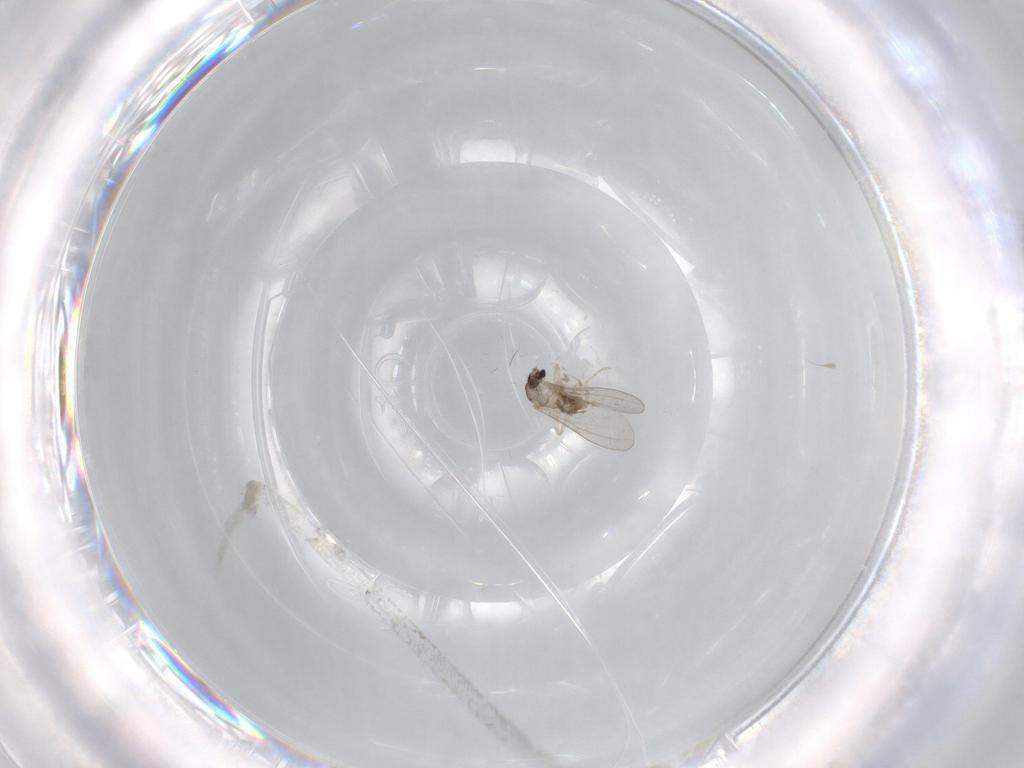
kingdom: Animalia
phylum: Arthropoda
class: Insecta
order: Diptera
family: Cecidomyiidae
